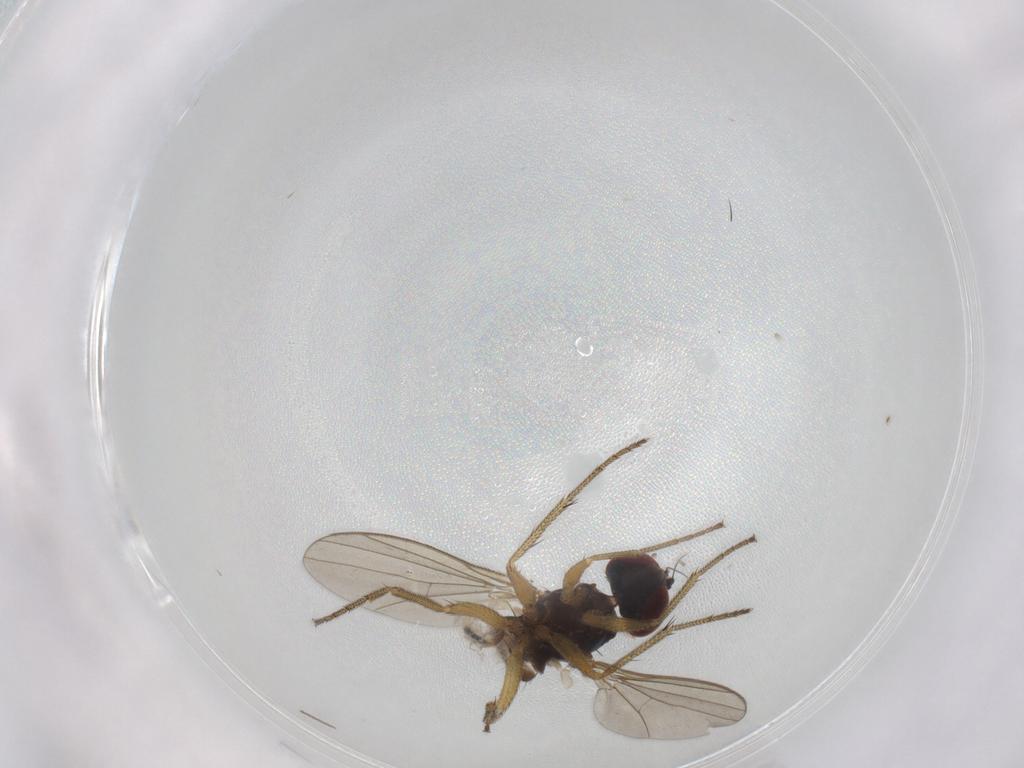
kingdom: Animalia
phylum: Arthropoda
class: Insecta
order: Diptera
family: Sciaridae
